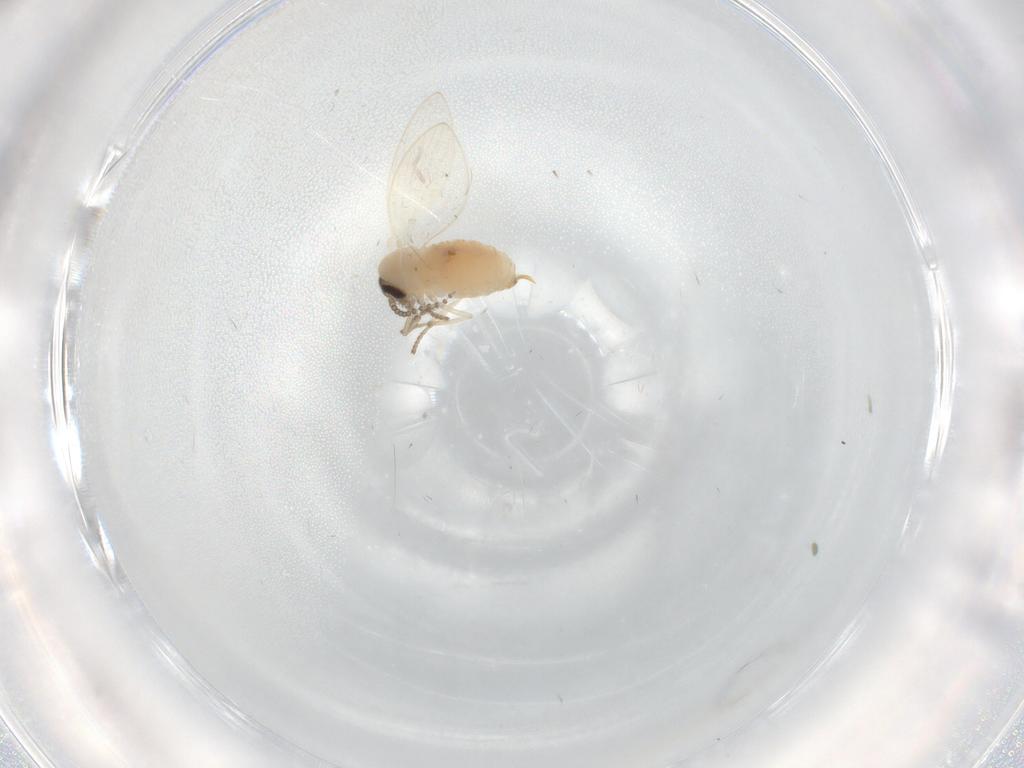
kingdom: Animalia
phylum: Arthropoda
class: Insecta
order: Diptera
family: Psychodidae
